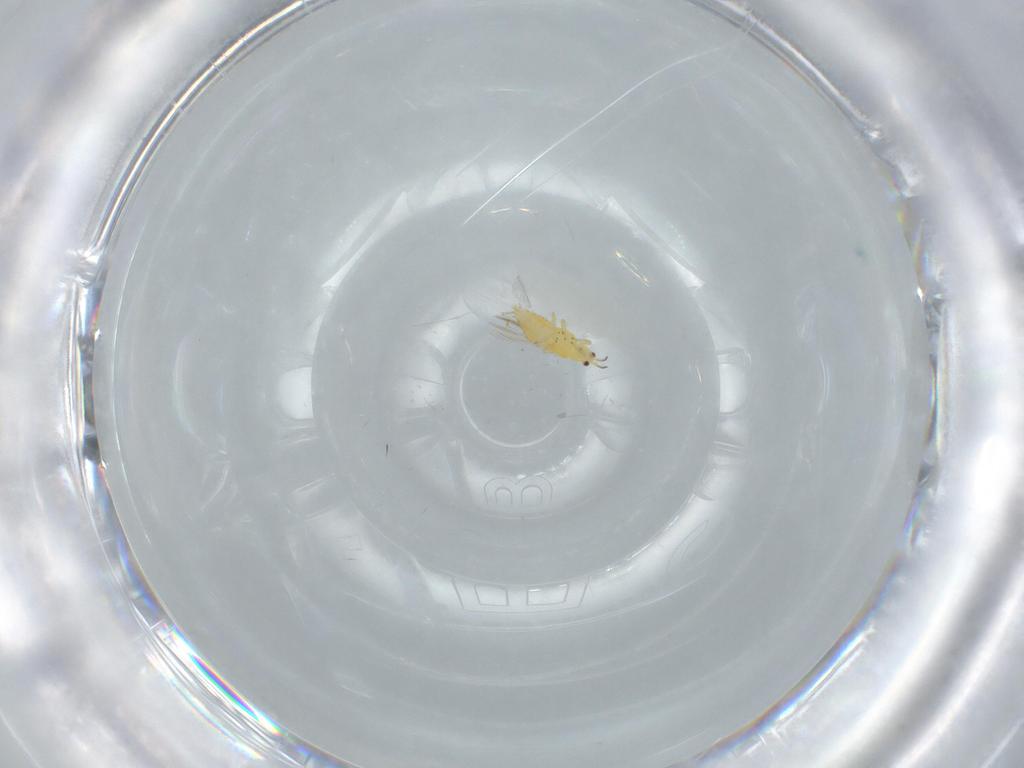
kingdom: Animalia
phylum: Arthropoda
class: Insecta
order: Thysanoptera
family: Thripidae
